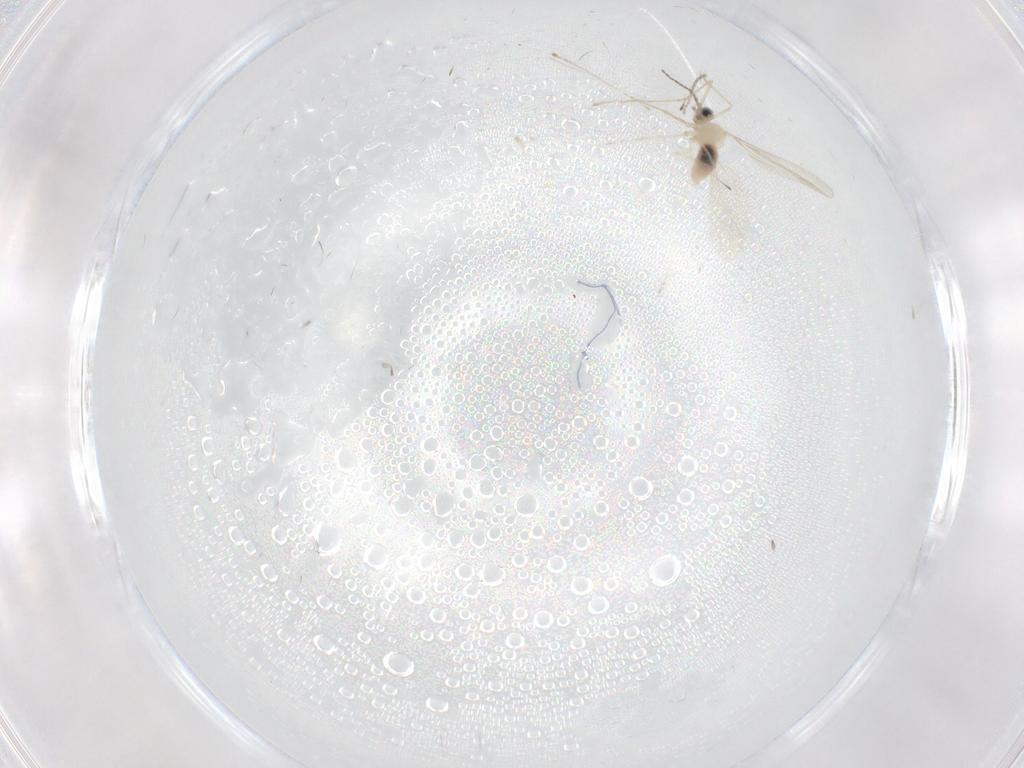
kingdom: Animalia
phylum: Arthropoda
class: Insecta
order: Diptera
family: Cecidomyiidae
